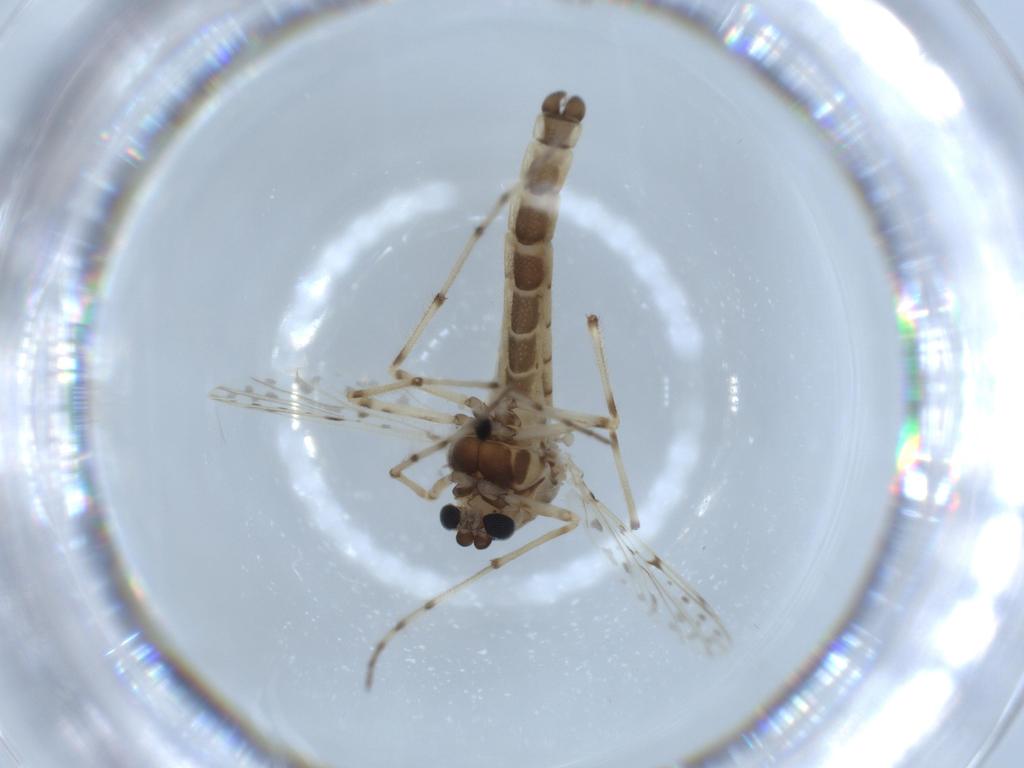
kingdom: Animalia
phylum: Arthropoda
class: Insecta
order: Diptera
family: Chironomidae
